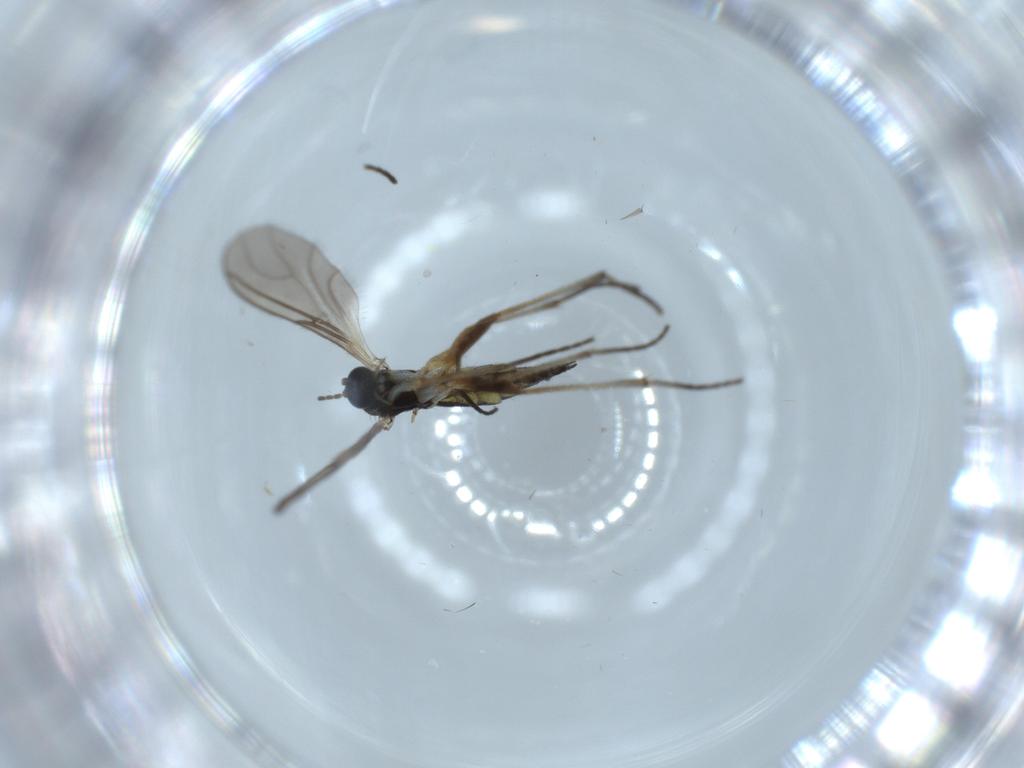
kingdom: Animalia
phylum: Arthropoda
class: Insecta
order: Diptera
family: Sciaridae
